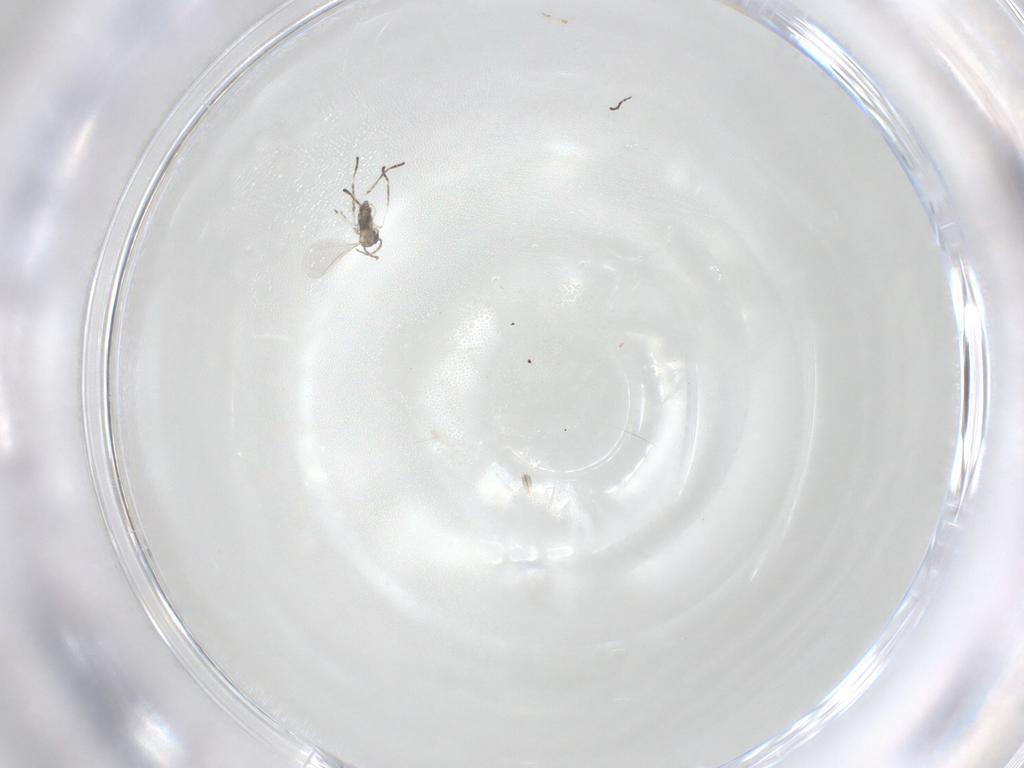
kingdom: Animalia
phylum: Arthropoda
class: Insecta
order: Diptera
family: Cecidomyiidae
